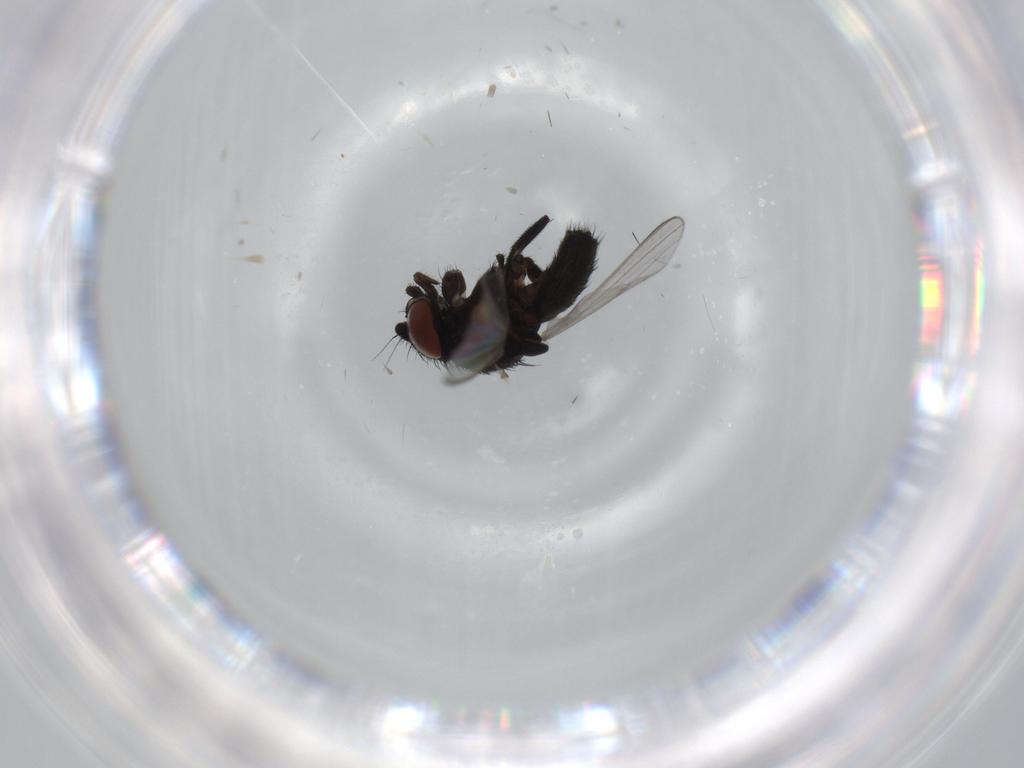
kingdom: Animalia
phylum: Arthropoda
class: Insecta
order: Diptera
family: Milichiidae
